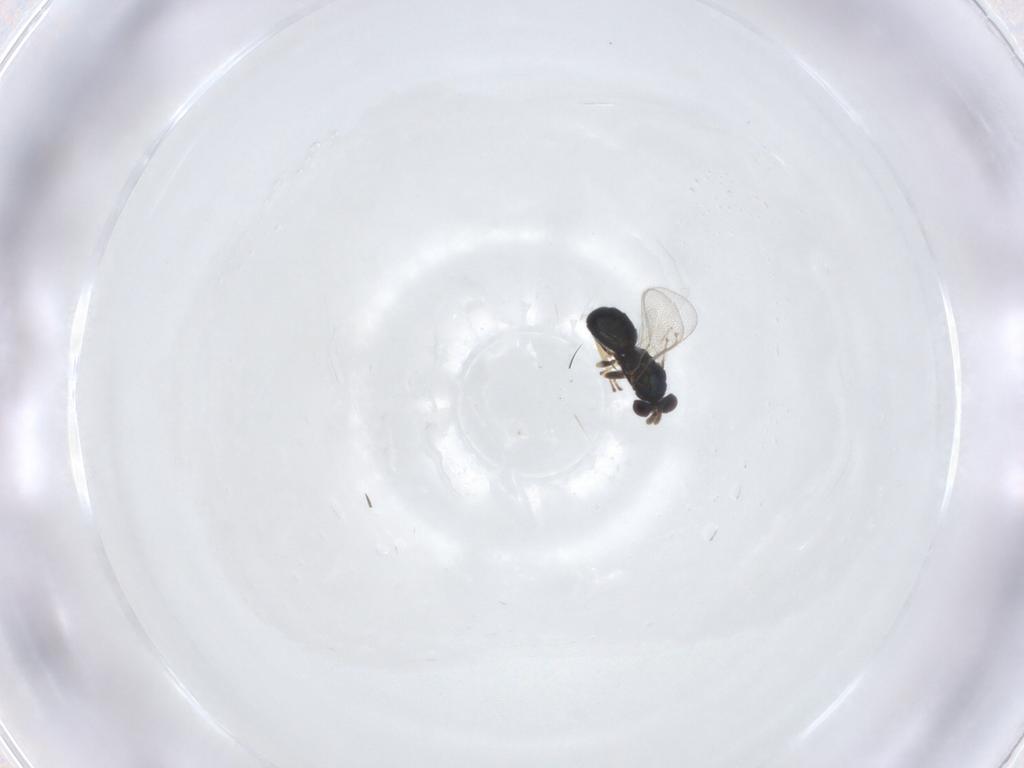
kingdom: Animalia
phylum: Arthropoda
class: Insecta
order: Hymenoptera
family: Eulophidae
